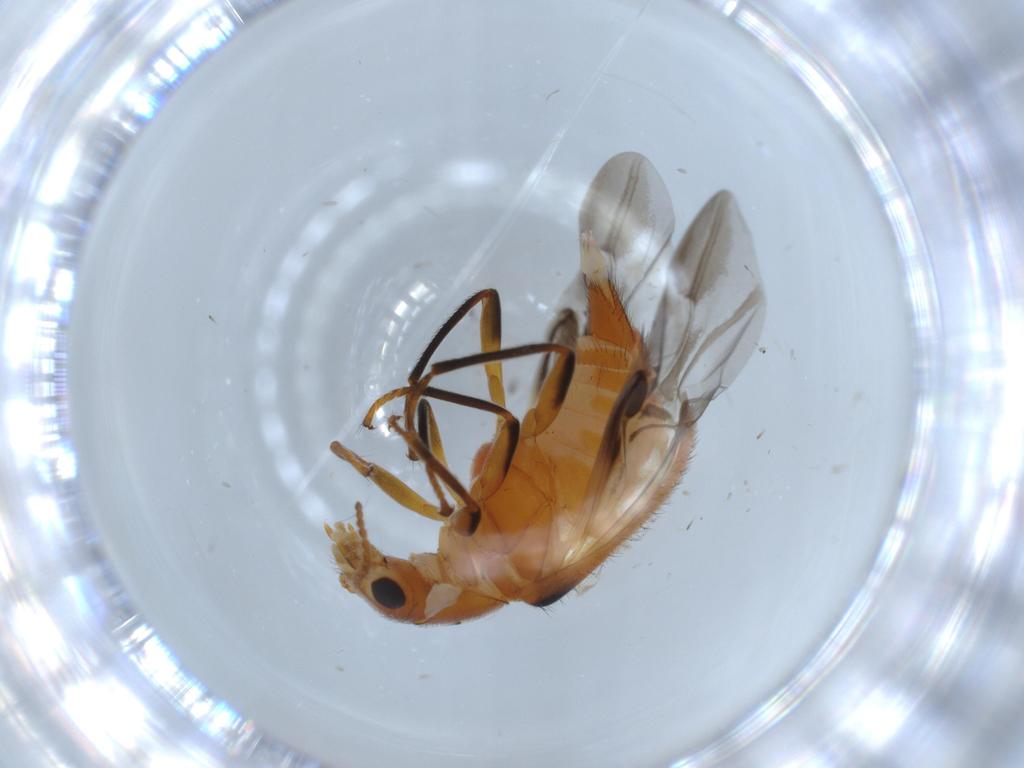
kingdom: Animalia
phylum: Arthropoda
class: Insecta
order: Coleoptera
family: Melyridae
